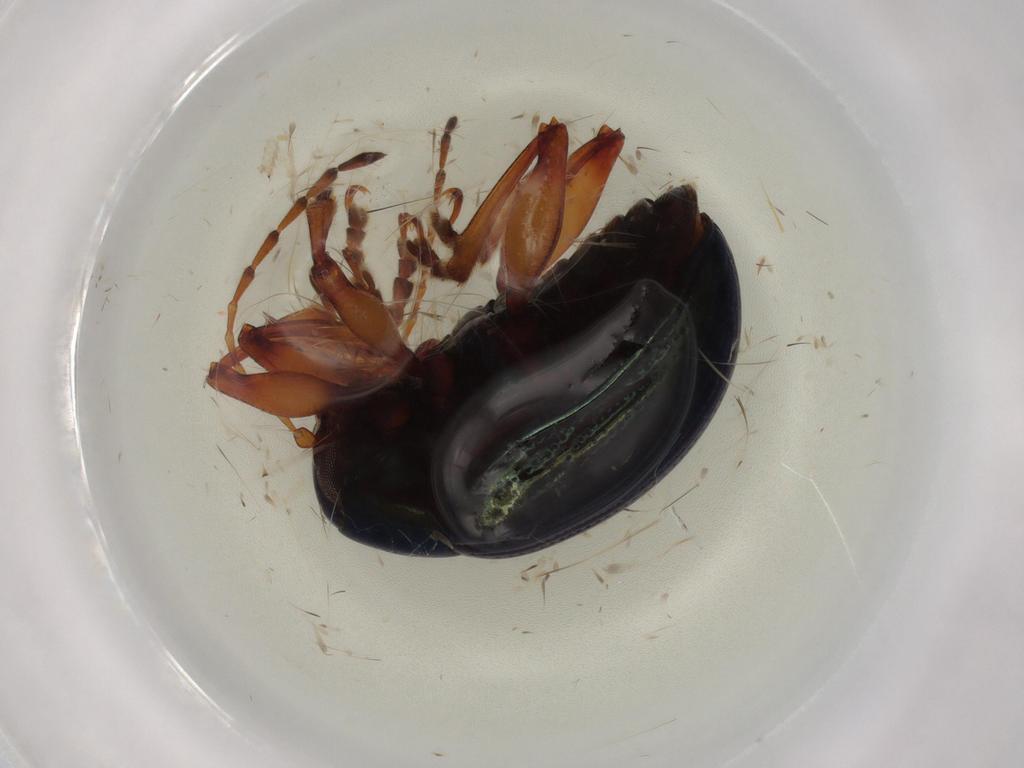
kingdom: Animalia
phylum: Arthropoda
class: Insecta
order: Coleoptera
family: Chrysomelidae
